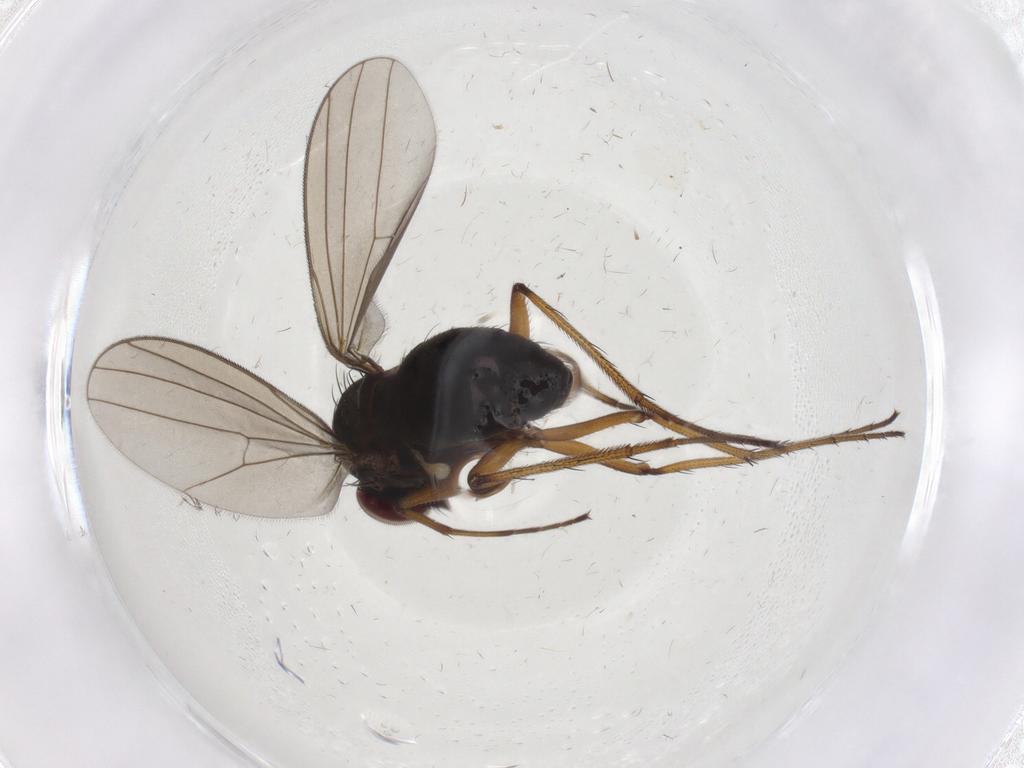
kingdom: Animalia
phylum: Arthropoda
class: Insecta
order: Diptera
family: Dolichopodidae
